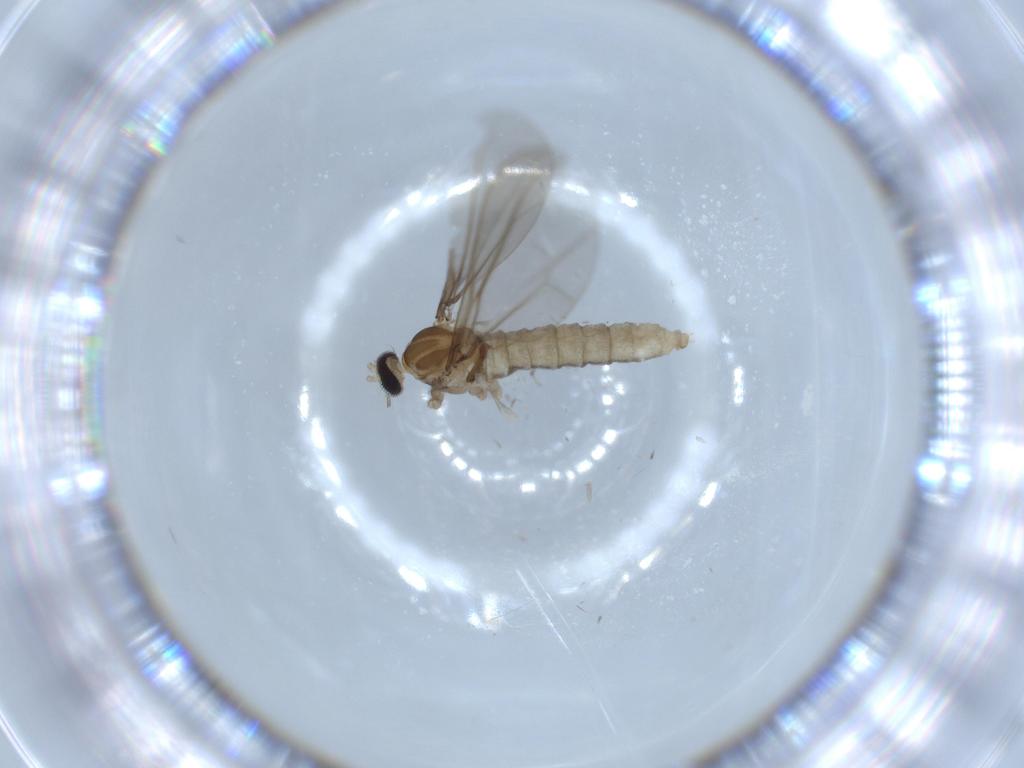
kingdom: Animalia
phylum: Arthropoda
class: Insecta
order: Diptera
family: Cecidomyiidae
